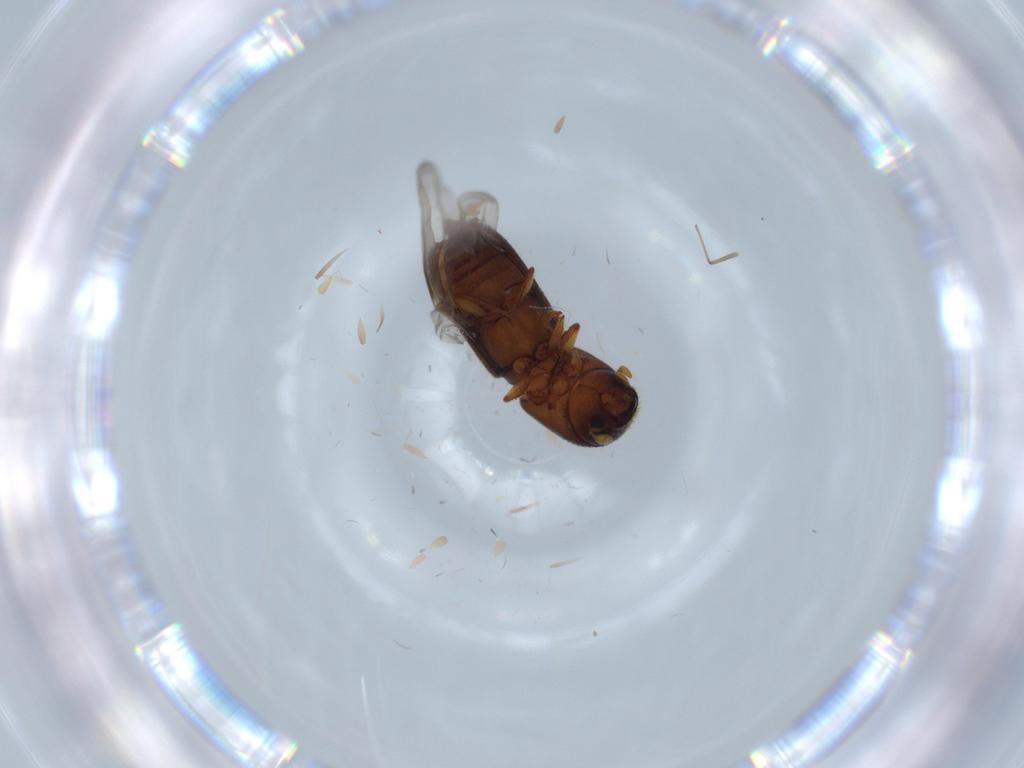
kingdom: Animalia
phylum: Arthropoda
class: Insecta
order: Coleoptera
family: Curculionidae
